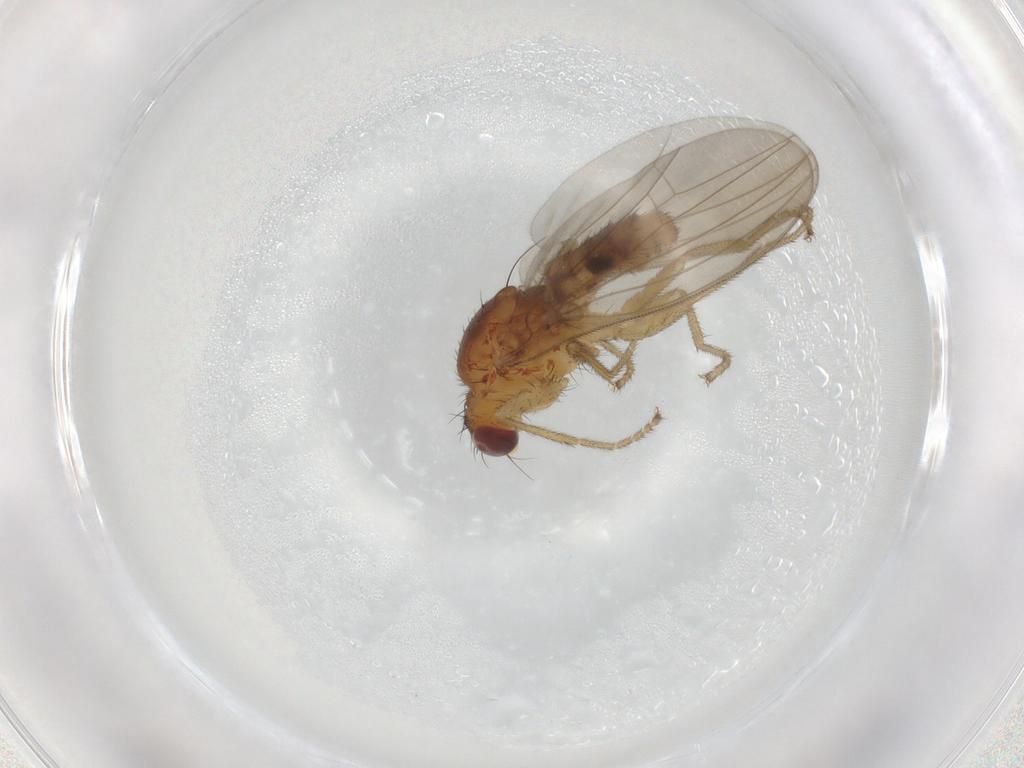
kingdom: Animalia
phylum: Arthropoda
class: Insecta
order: Diptera
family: Natalimyzidae
